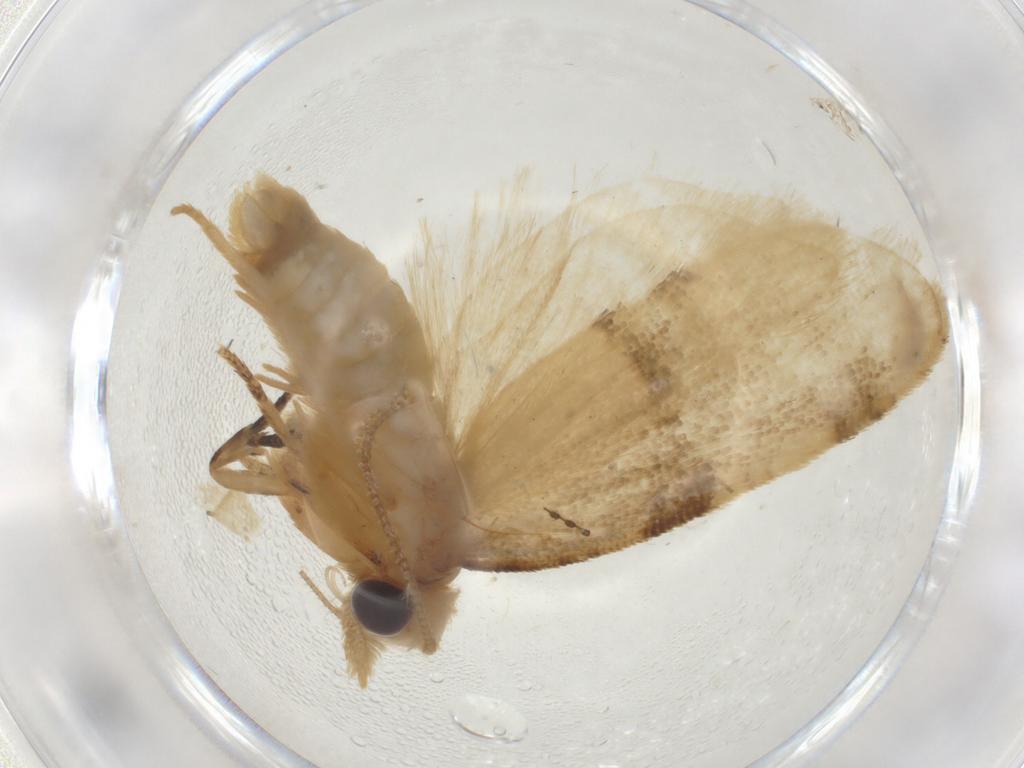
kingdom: Animalia
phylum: Arthropoda
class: Insecta
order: Lepidoptera
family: Tortricidae
